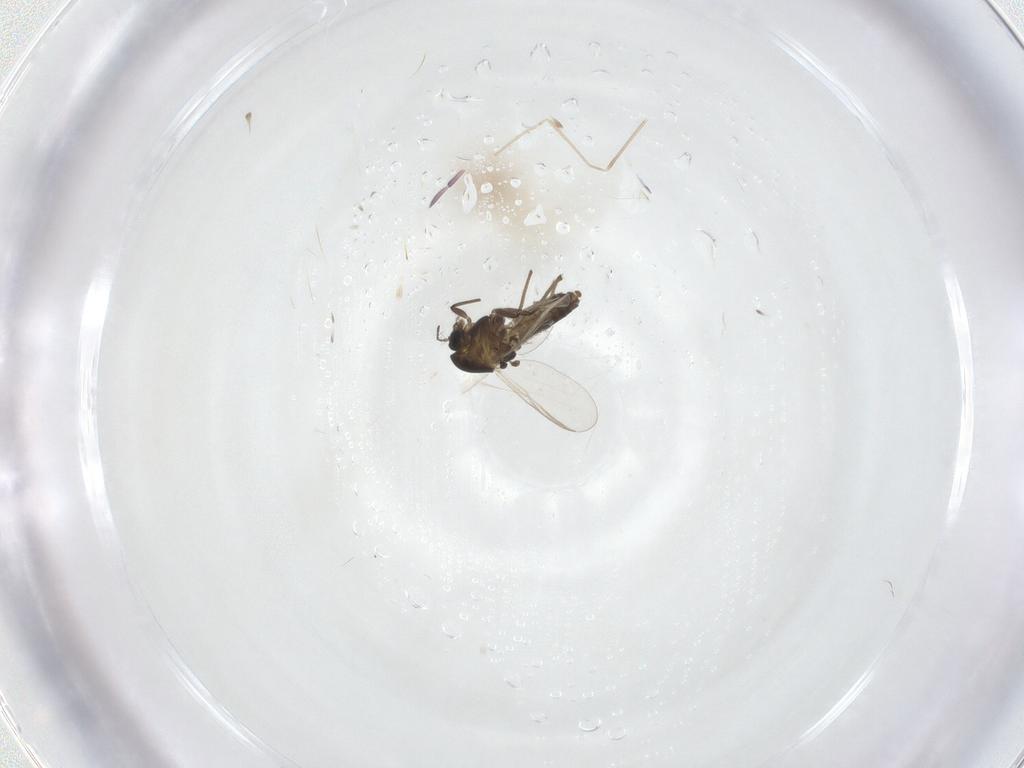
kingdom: Animalia
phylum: Arthropoda
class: Insecta
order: Diptera
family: Chironomidae
